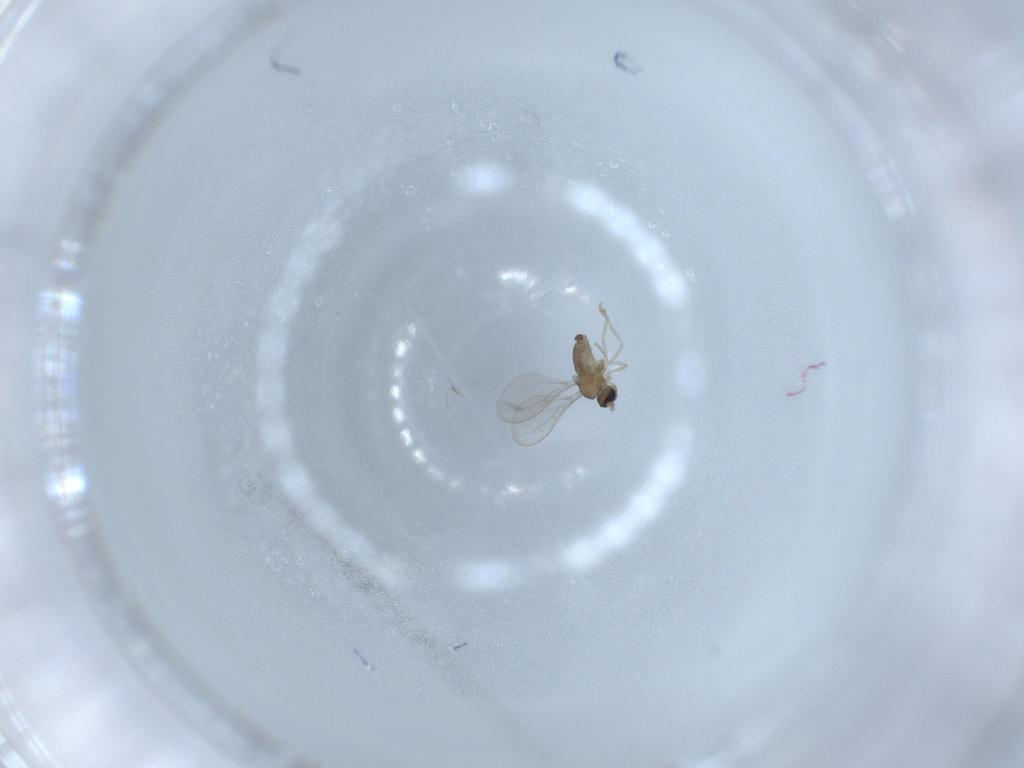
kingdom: Animalia
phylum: Arthropoda
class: Insecta
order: Diptera
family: Cecidomyiidae
